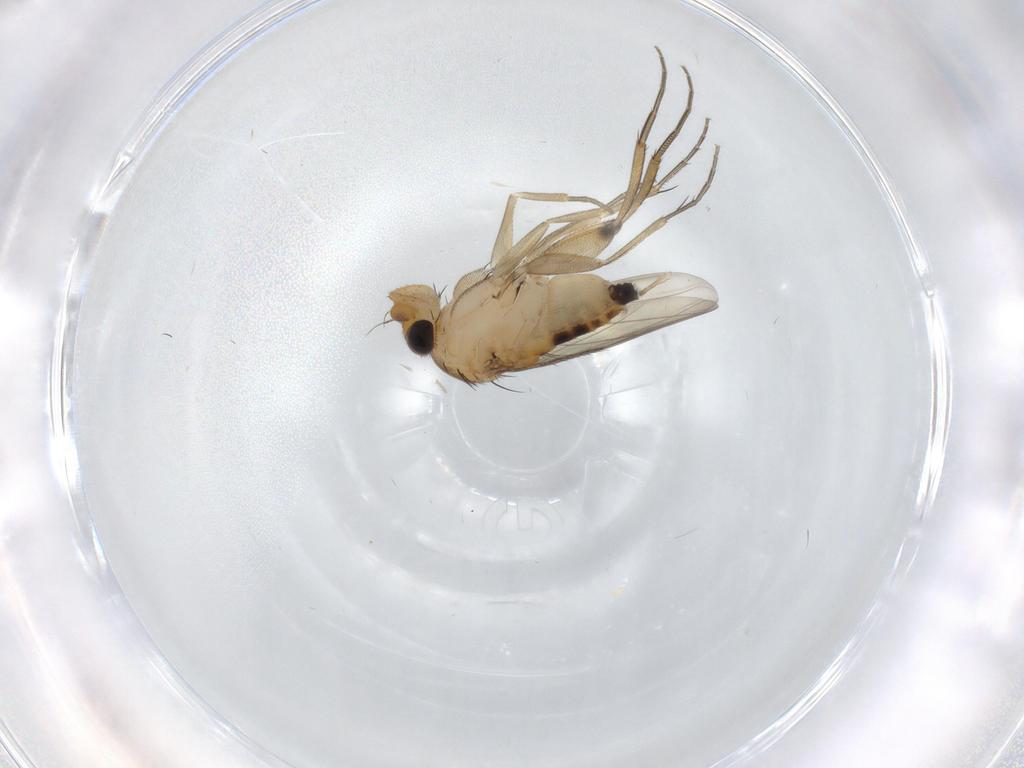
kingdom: Animalia
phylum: Arthropoda
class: Insecta
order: Diptera
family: Phoridae
